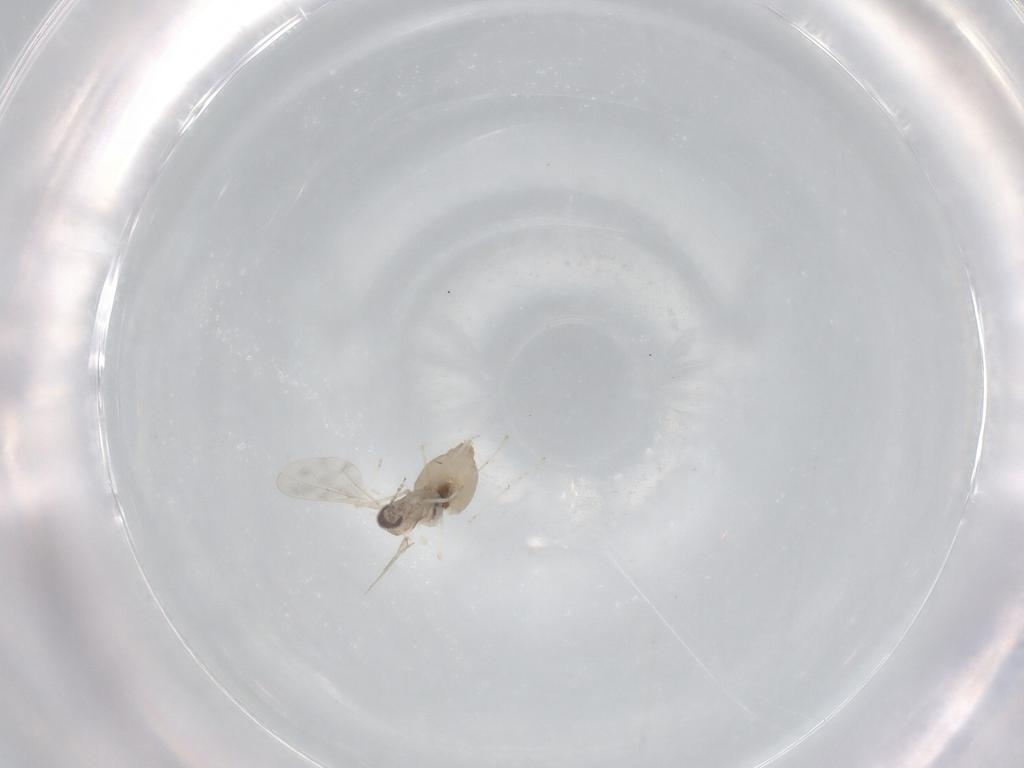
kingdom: Animalia
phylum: Arthropoda
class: Insecta
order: Diptera
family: Cecidomyiidae
